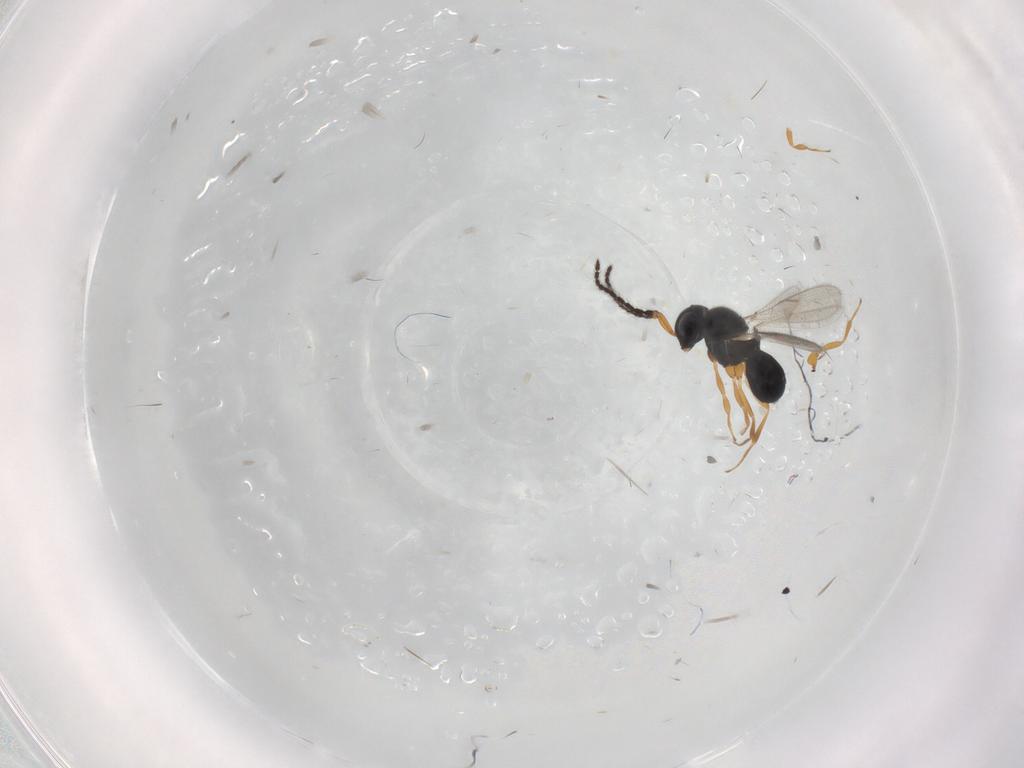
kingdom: Animalia
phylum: Arthropoda
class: Insecta
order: Hymenoptera
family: Scelionidae
